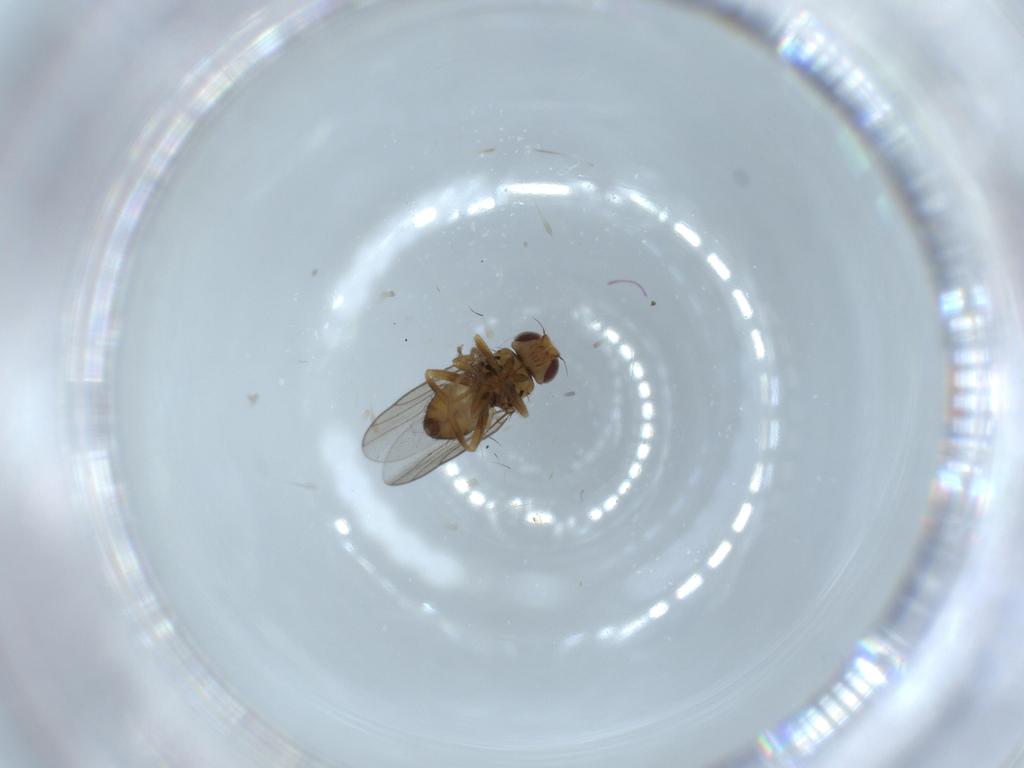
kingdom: Animalia
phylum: Arthropoda
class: Insecta
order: Diptera
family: Chloropidae
